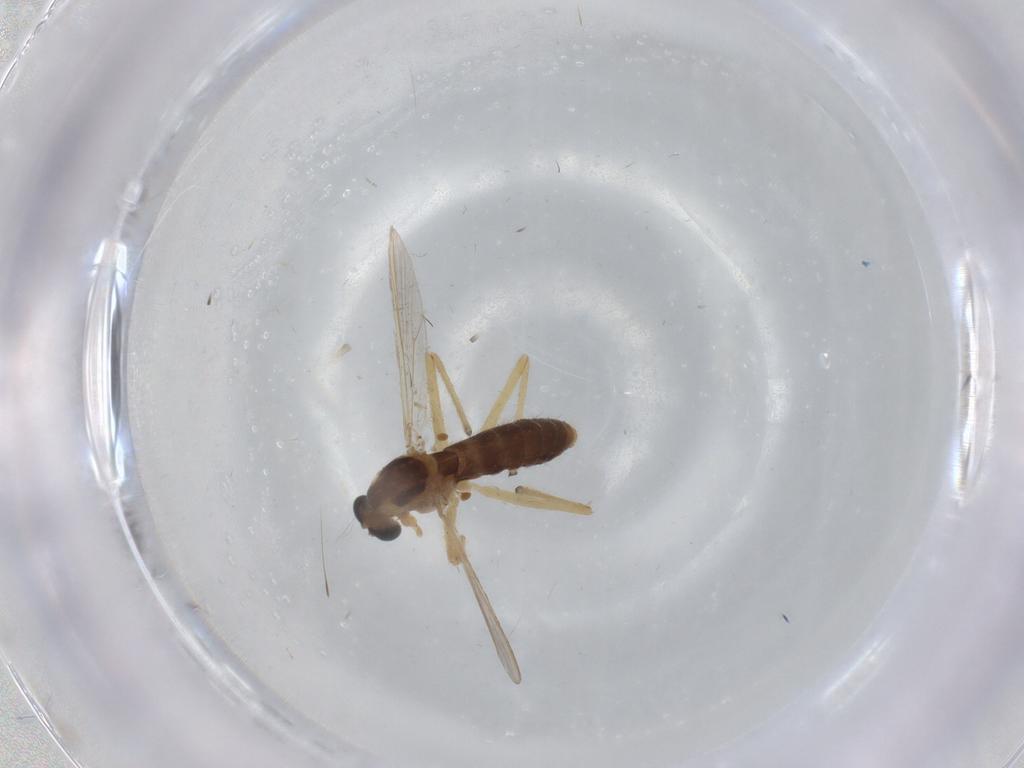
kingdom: Animalia
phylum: Arthropoda
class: Insecta
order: Diptera
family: Chironomidae
